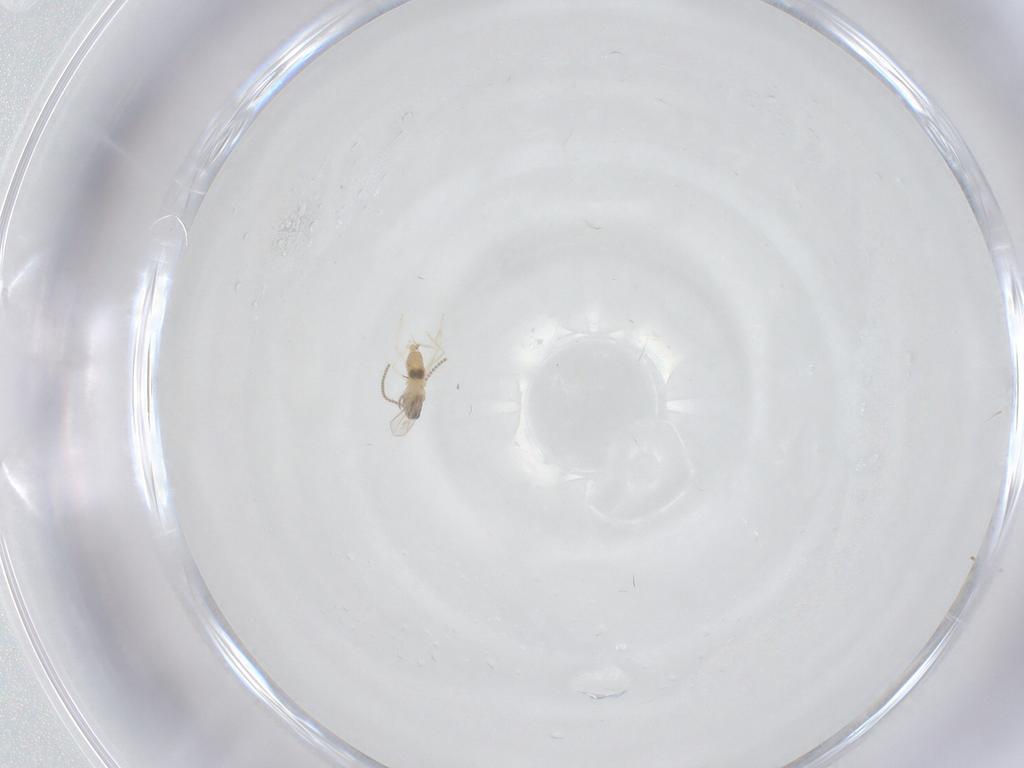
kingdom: Animalia
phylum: Arthropoda
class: Insecta
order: Diptera
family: Cecidomyiidae
